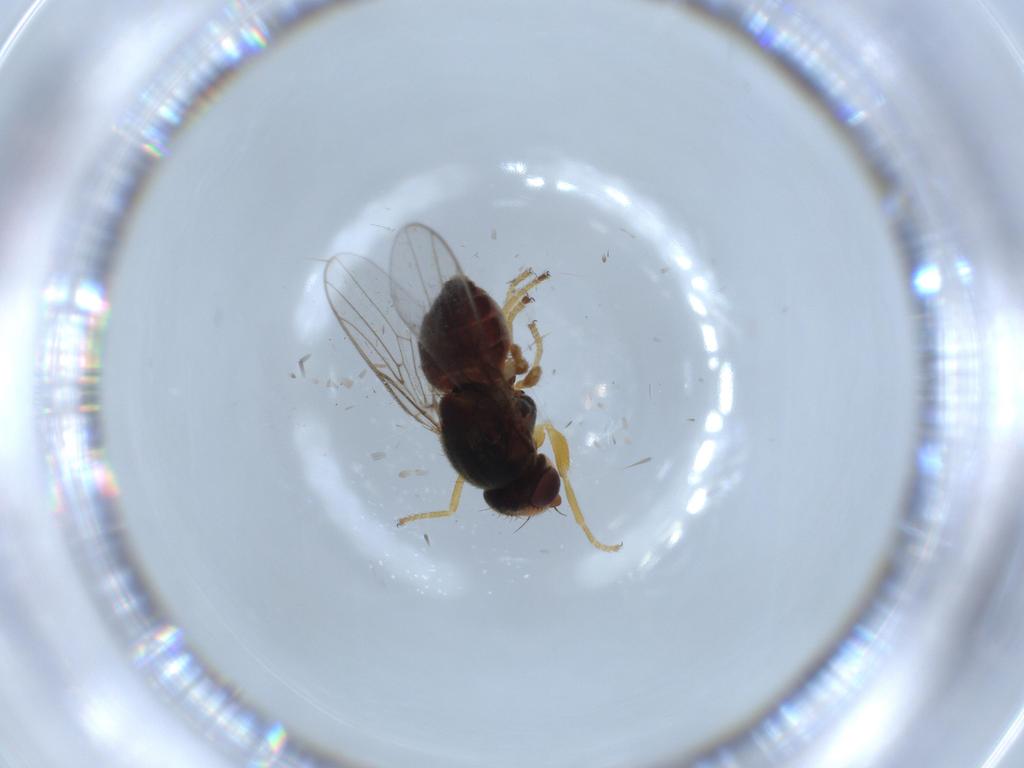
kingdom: Animalia
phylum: Arthropoda
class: Insecta
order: Diptera
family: Chloropidae
